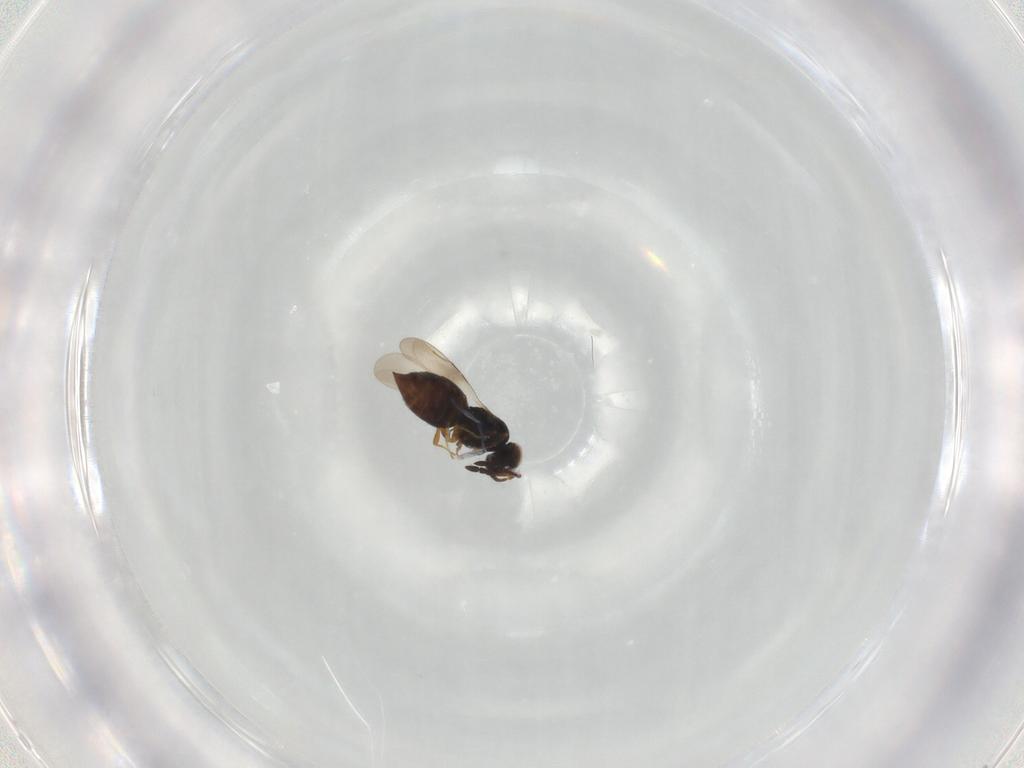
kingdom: Animalia
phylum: Arthropoda
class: Insecta
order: Hymenoptera
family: Ceraphronidae
